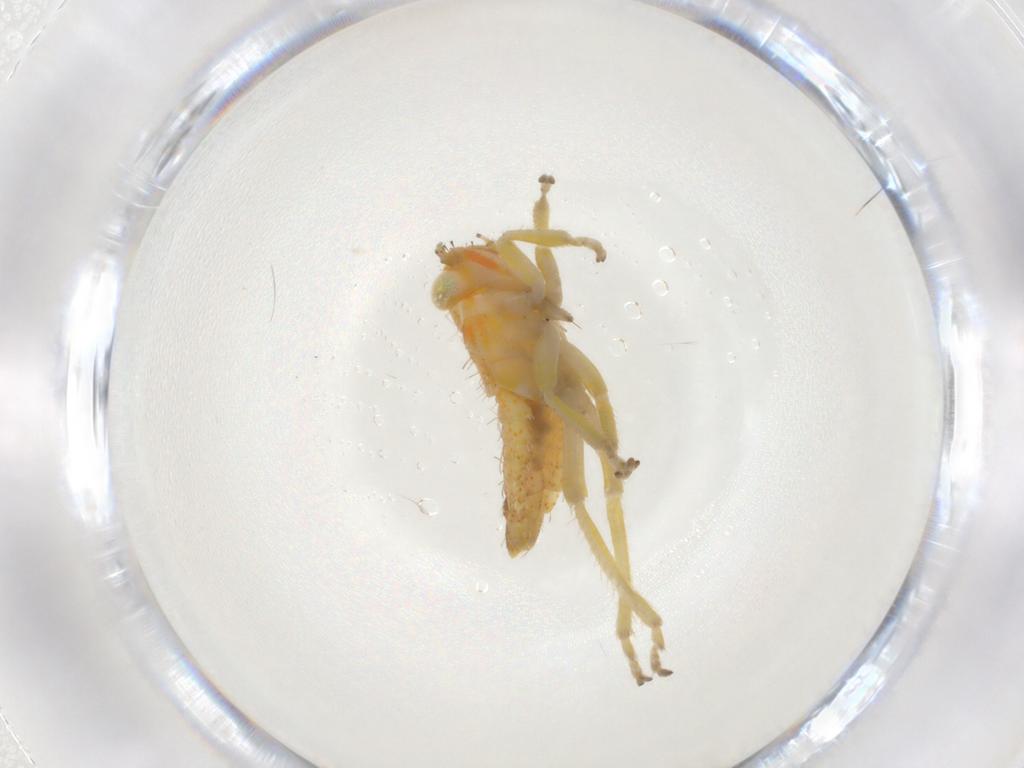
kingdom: Animalia
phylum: Arthropoda
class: Insecta
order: Hemiptera
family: Cicadellidae
